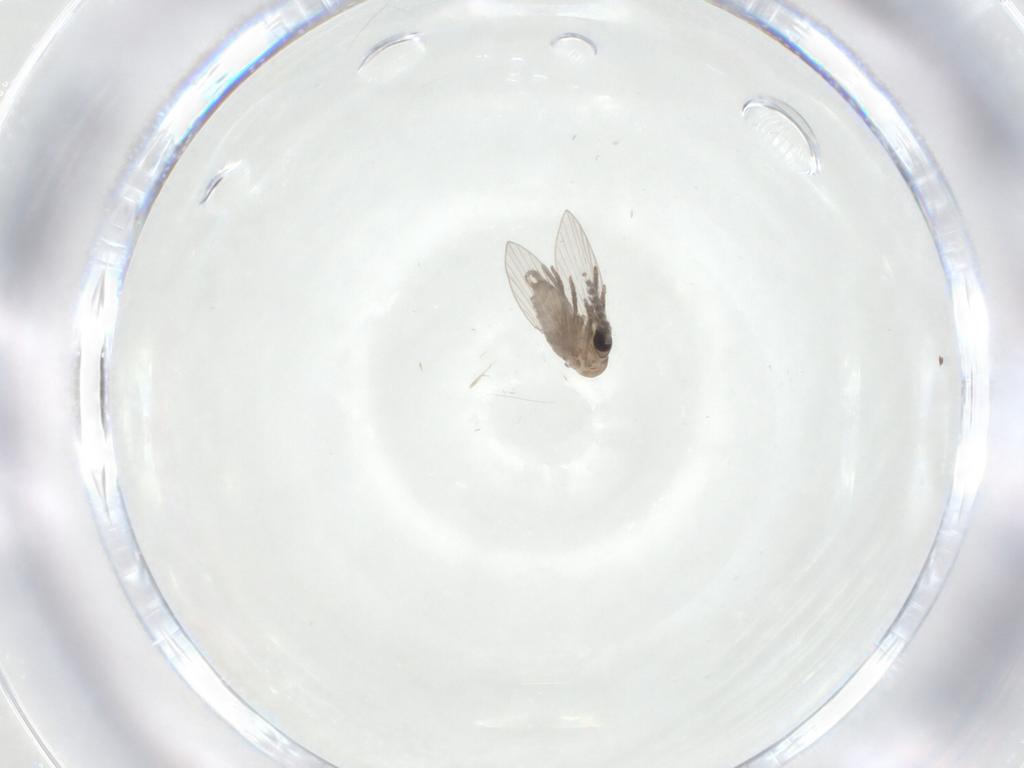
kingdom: Animalia
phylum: Arthropoda
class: Insecta
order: Diptera
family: Psychodidae
